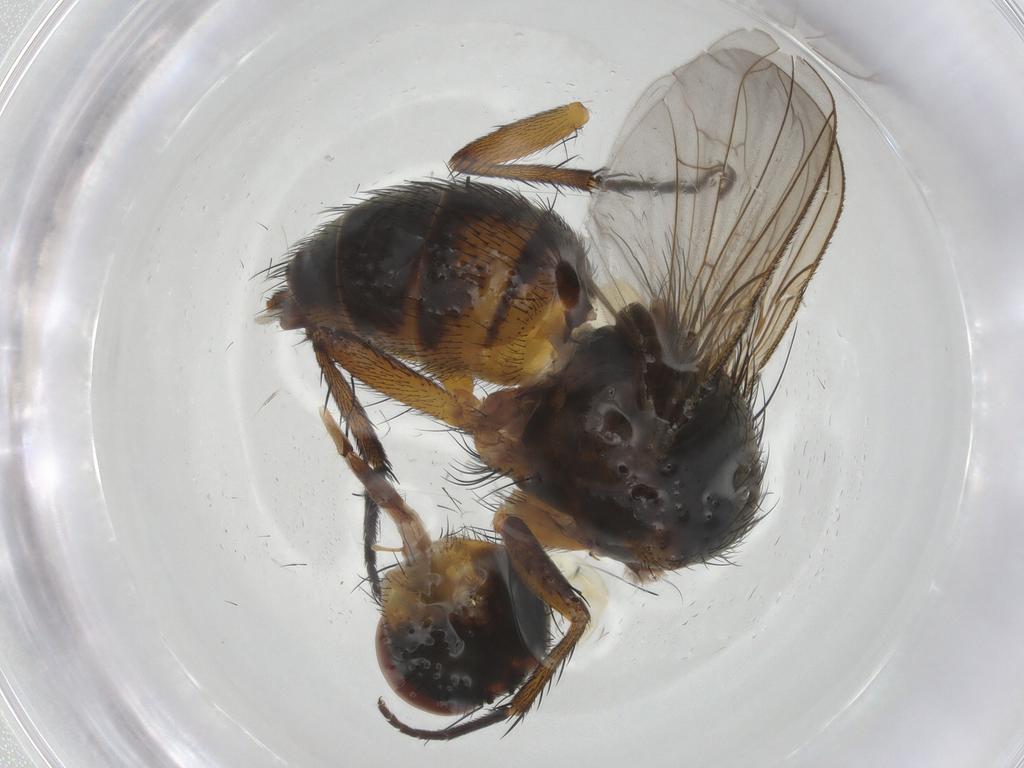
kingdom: Animalia
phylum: Arthropoda
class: Insecta
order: Diptera
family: Tachinidae
